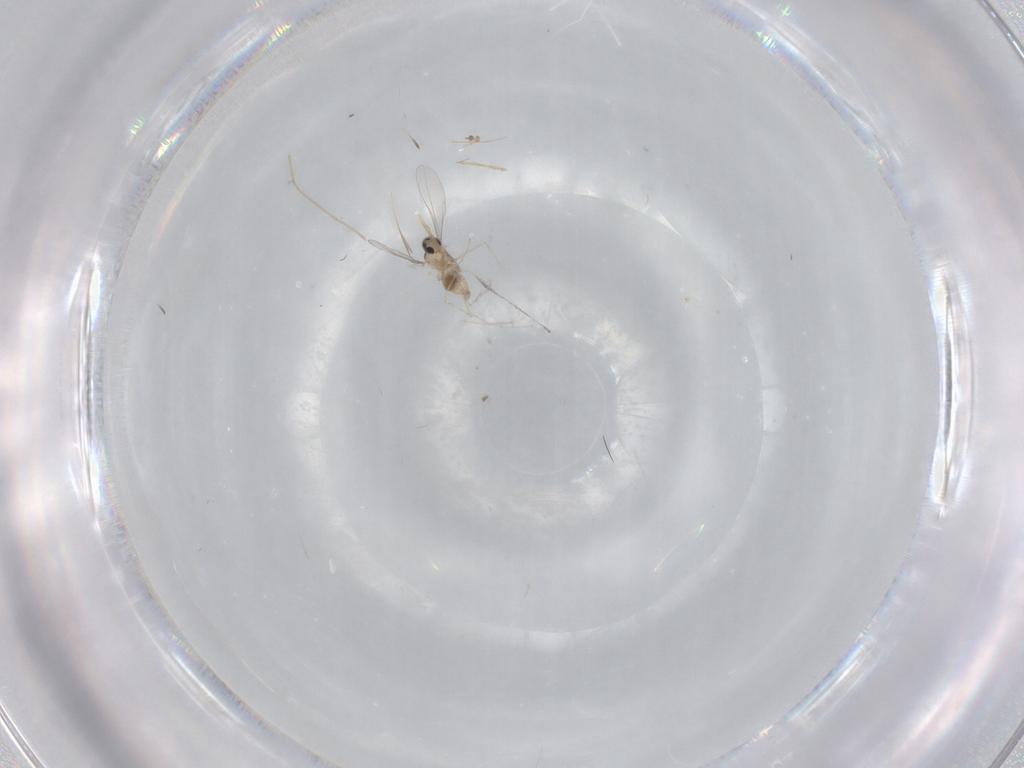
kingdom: Animalia
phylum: Arthropoda
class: Insecta
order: Diptera
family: Cecidomyiidae
